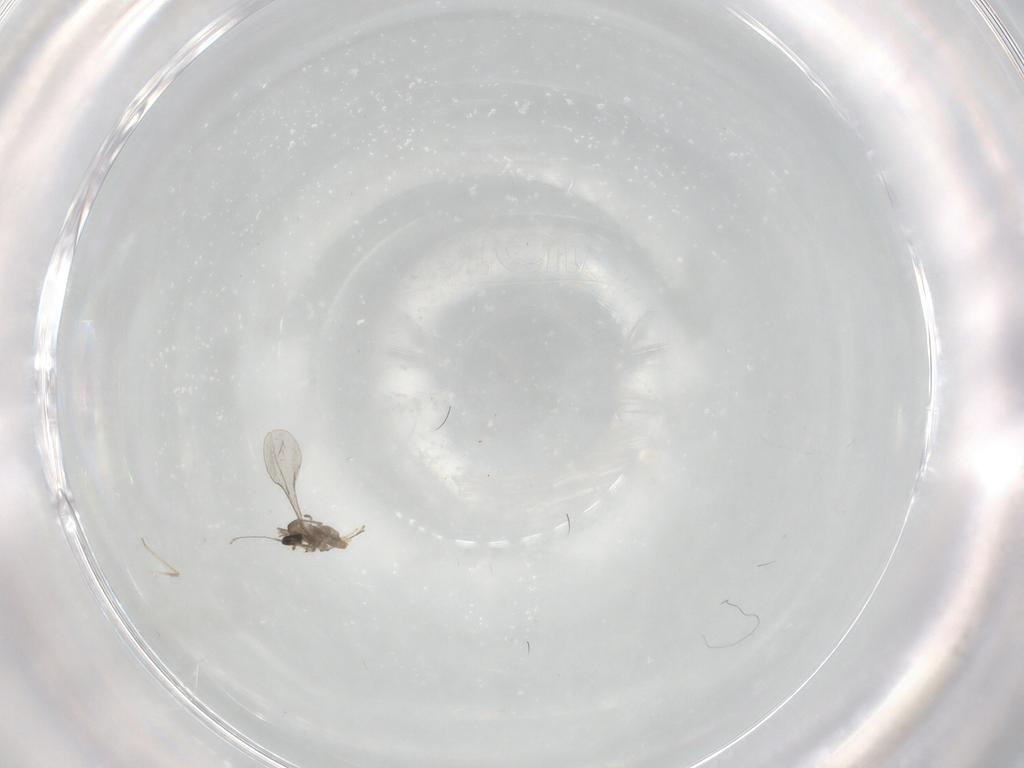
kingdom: Animalia
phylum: Arthropoda
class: Insecta
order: Diptera
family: Cecidomyiidae
